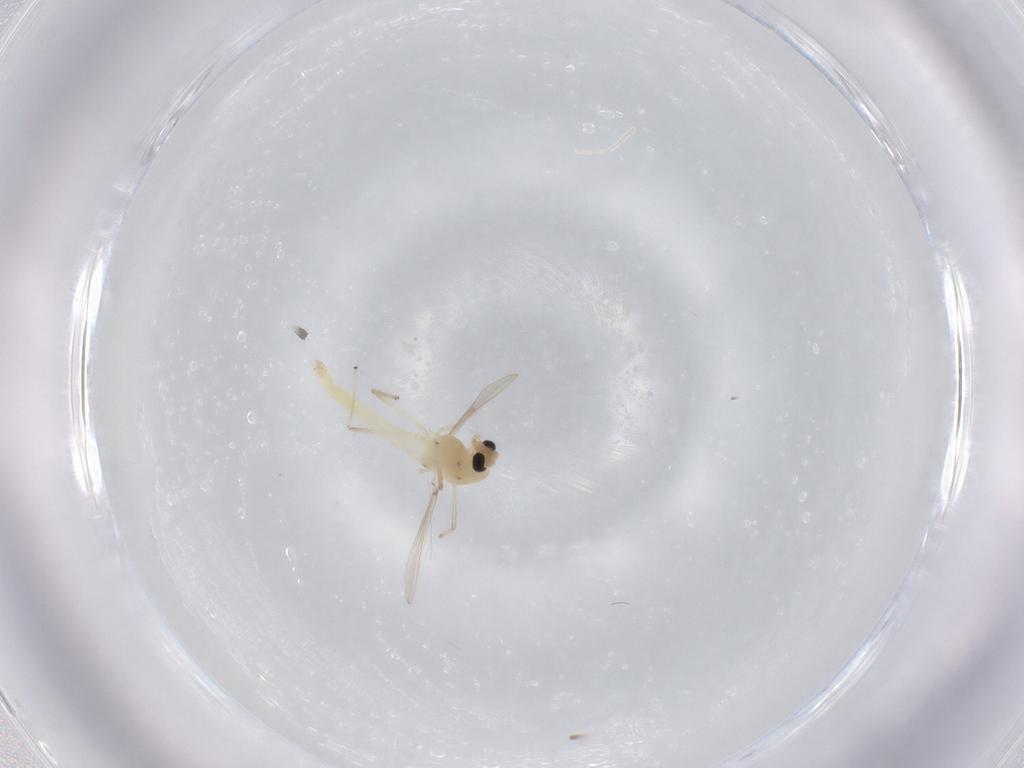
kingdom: Animalia
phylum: Arthropoda
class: Insecta
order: Diptera
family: Chironomidae
